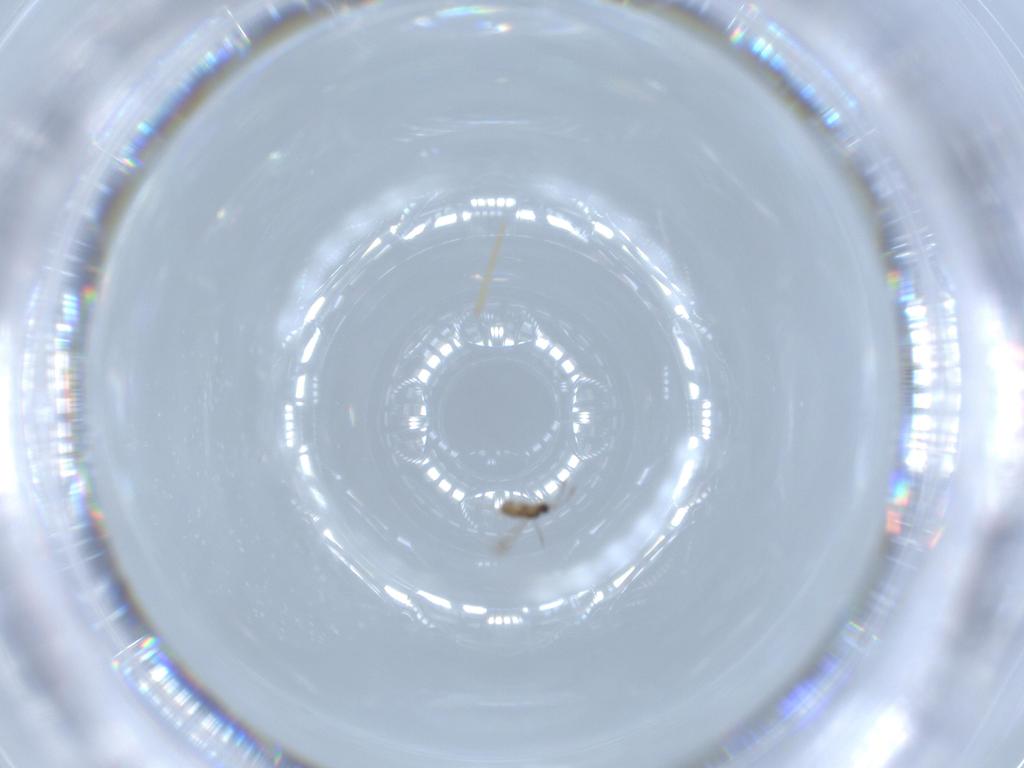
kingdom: Animalia
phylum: Arthropoda
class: Insecta
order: Hymenoptera
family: Mymaridae
